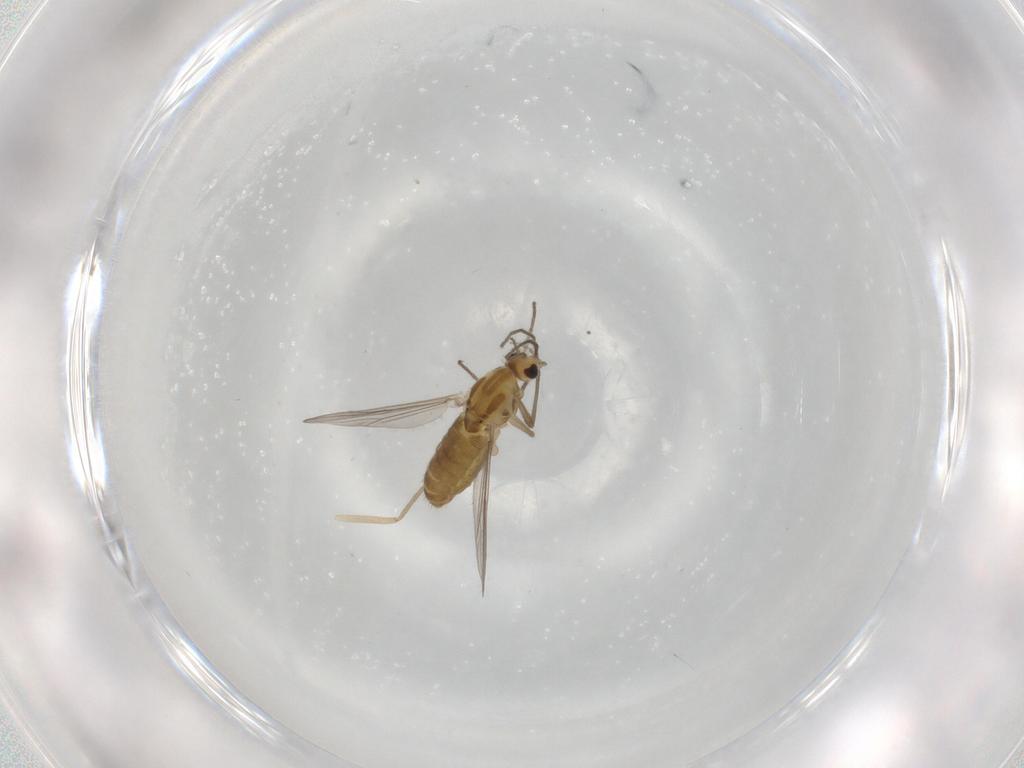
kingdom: Animalia
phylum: Arthropoda
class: Insecta
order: Diptera
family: Chironomidae
